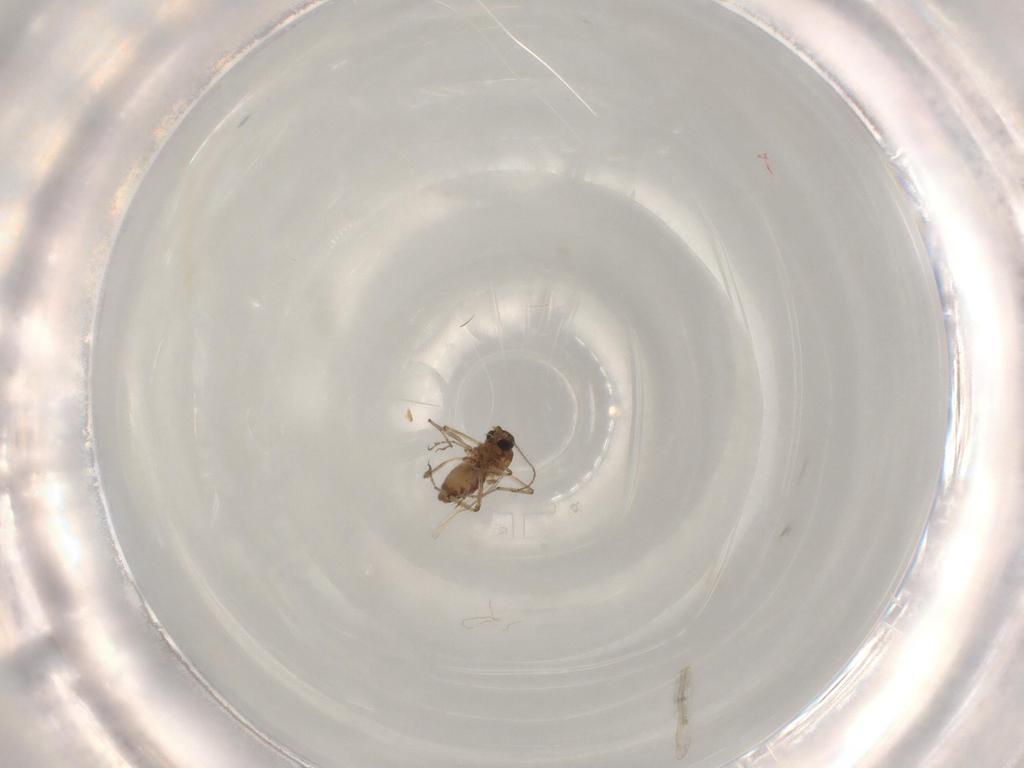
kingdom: Animalia
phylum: Arthropoda
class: Insecta
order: Diptera
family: Ceratopogonidae
